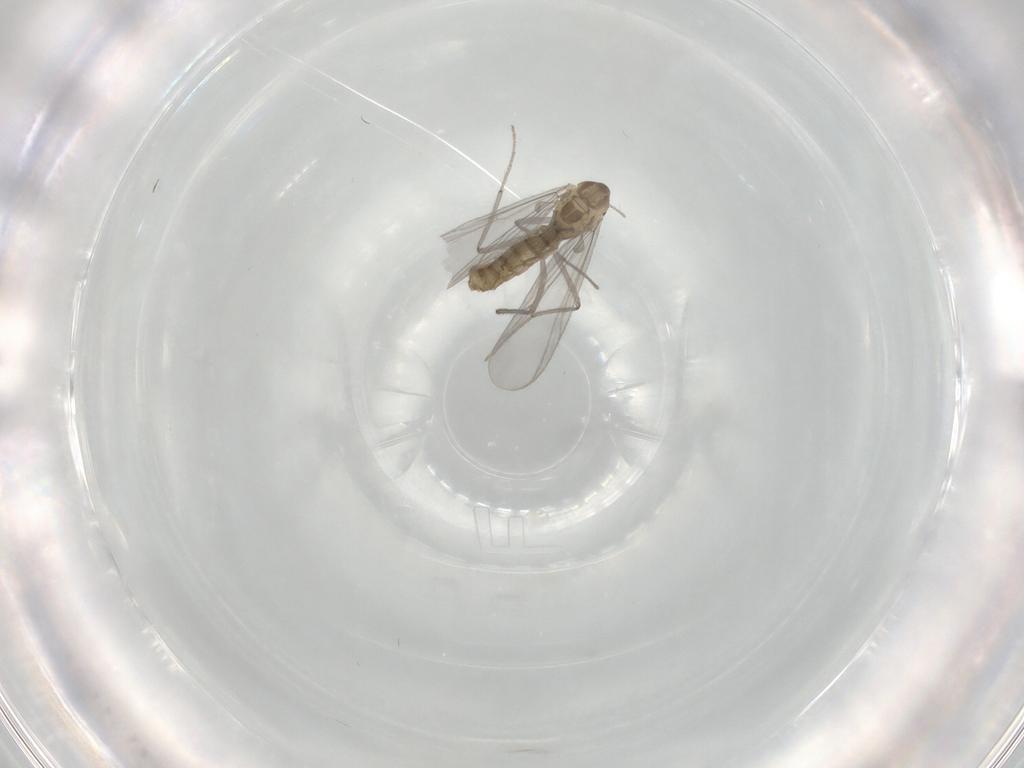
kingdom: Animalia
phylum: Arthropoda
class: Insecta
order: Diptera
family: Chironomidae
